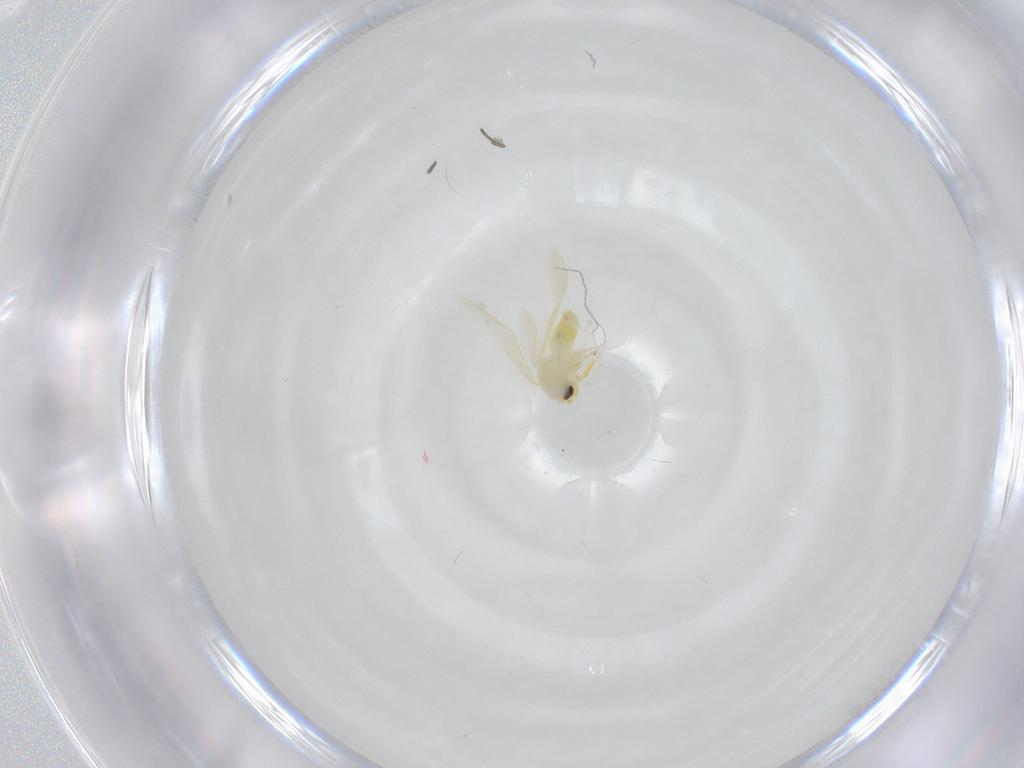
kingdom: Animalia
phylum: Arthropoda
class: Insecta
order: Hemiptera
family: Aleyrodidae
